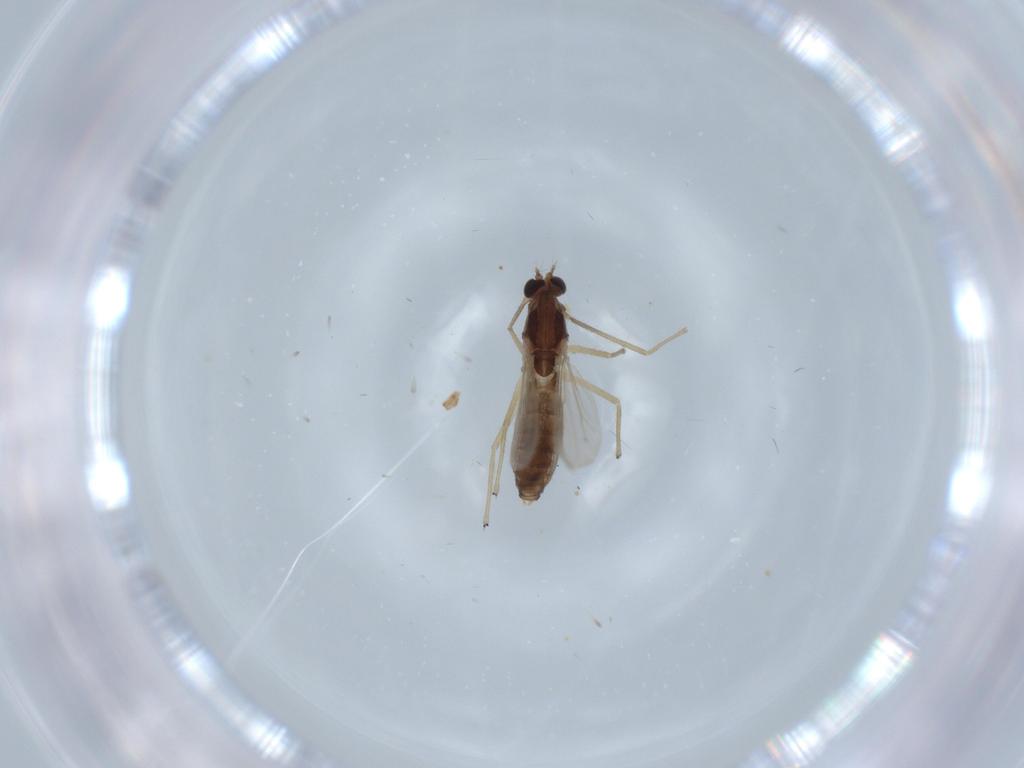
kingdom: Animalia
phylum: Arthropoda
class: Insecta
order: Diptera
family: Chironomidae
